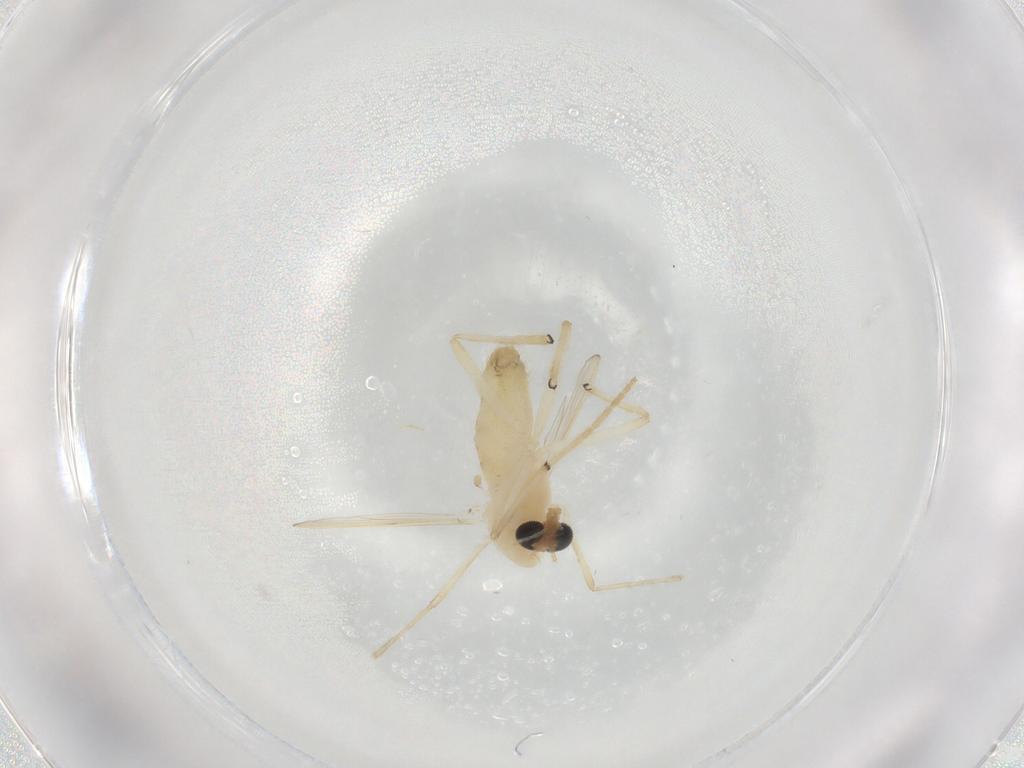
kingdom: Animalia
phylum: Arthropoda
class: Insecta
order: Diptera
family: Chironomidae
